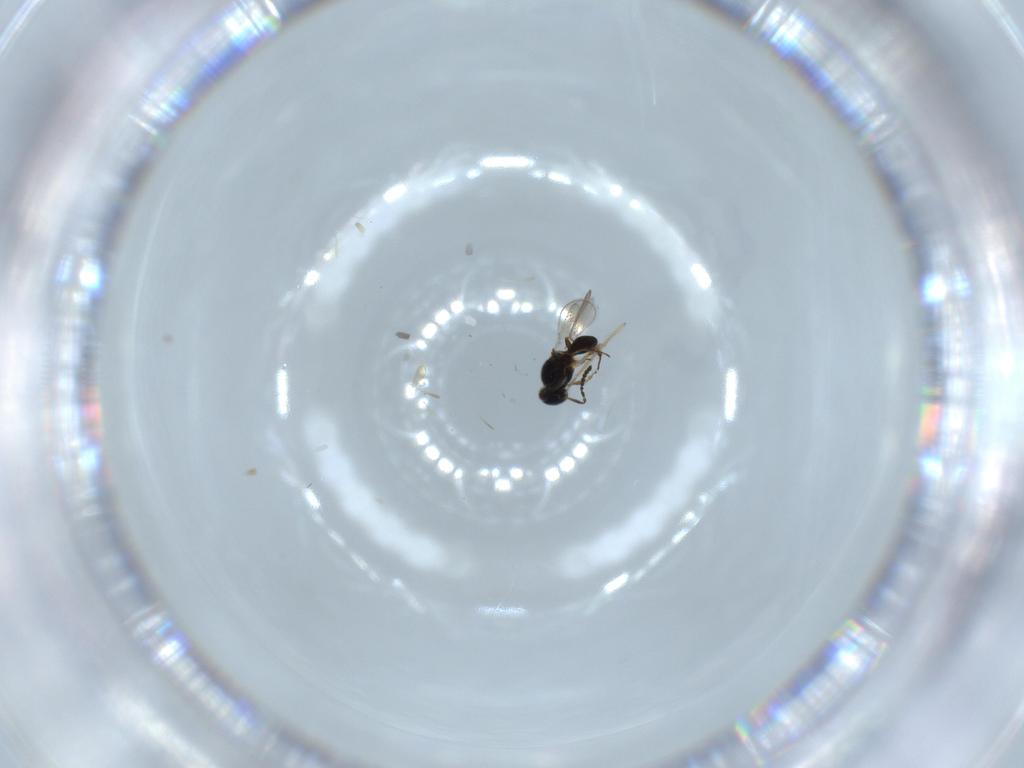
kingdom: Animalia
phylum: Arthropoda
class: Insecta
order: Hymenoptera
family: Platygastridae
